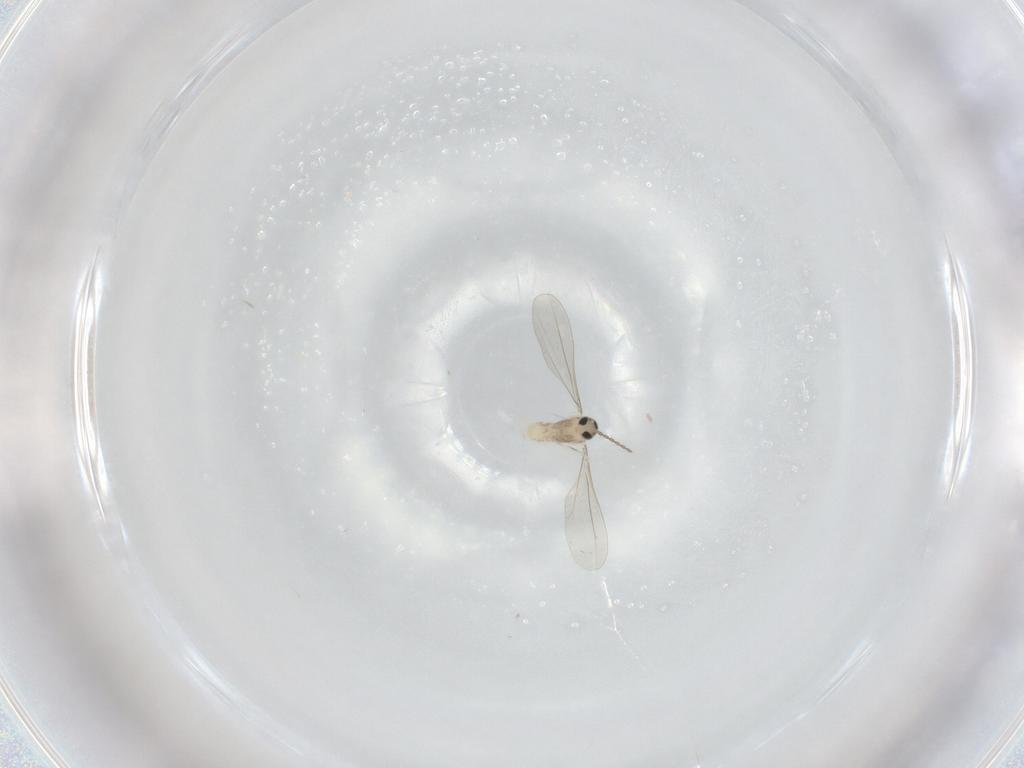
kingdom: Animalia
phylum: Arthropoda
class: Insecta
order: Diptera
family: Cecidomyiidae
